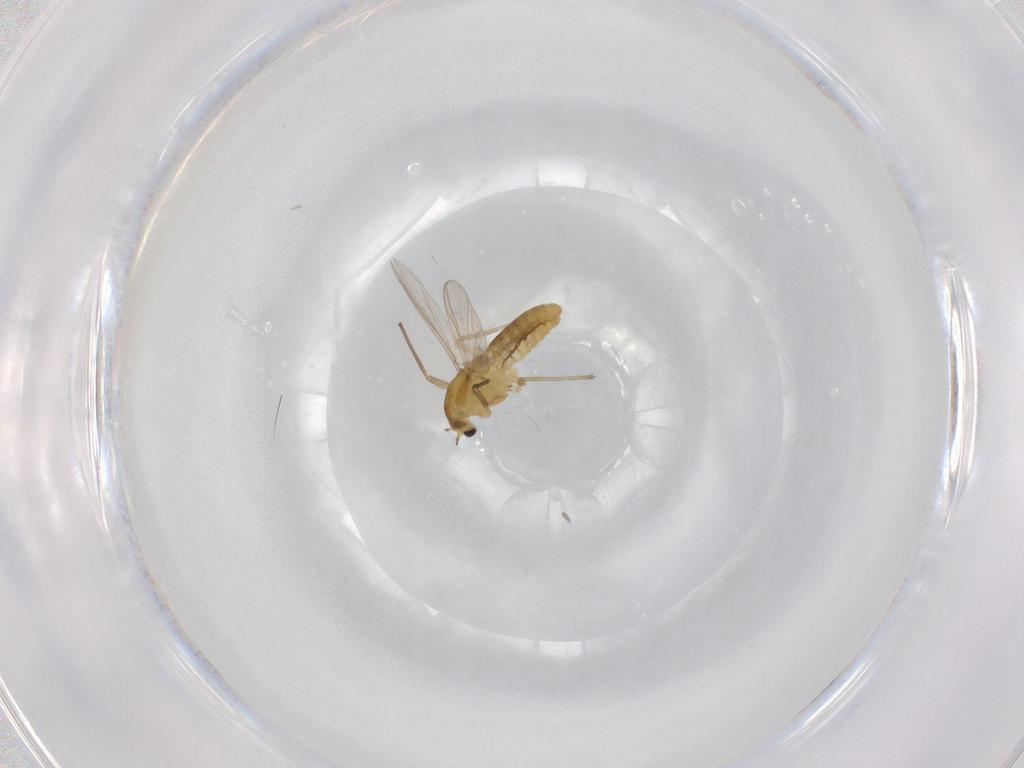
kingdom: Animalia
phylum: Arthropoda
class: Insecta
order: Diptera
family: Chironomidae
